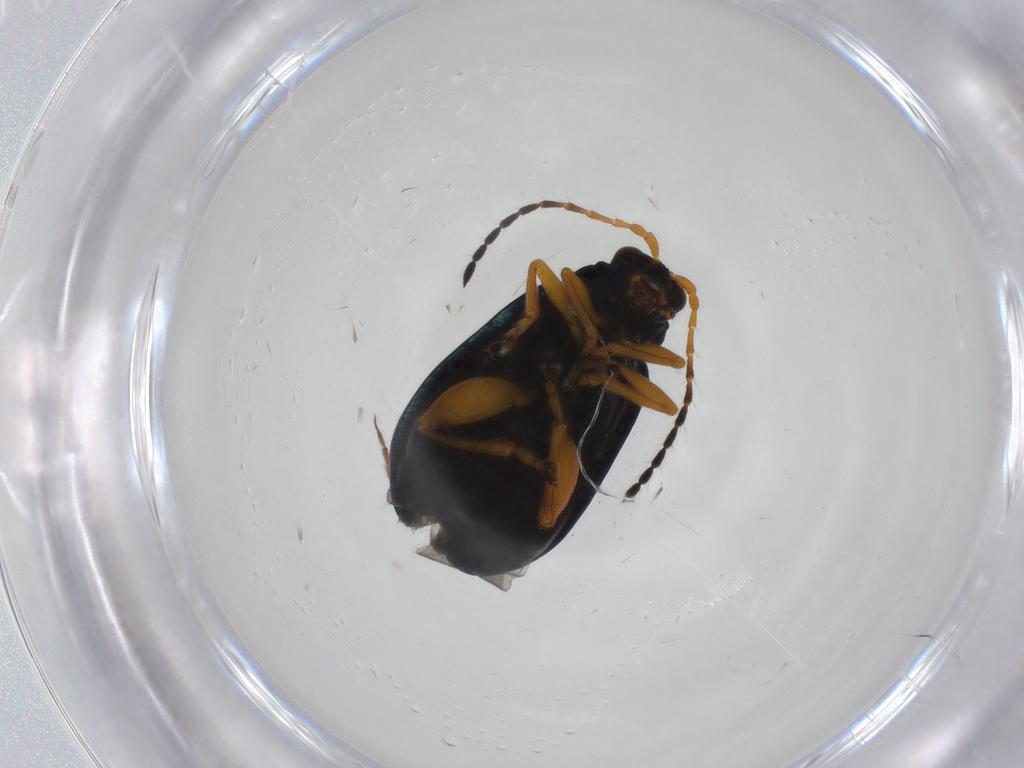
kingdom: Animalia
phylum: Arthropoda
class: Insecta
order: Coleoptera
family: Chrysomelidae
